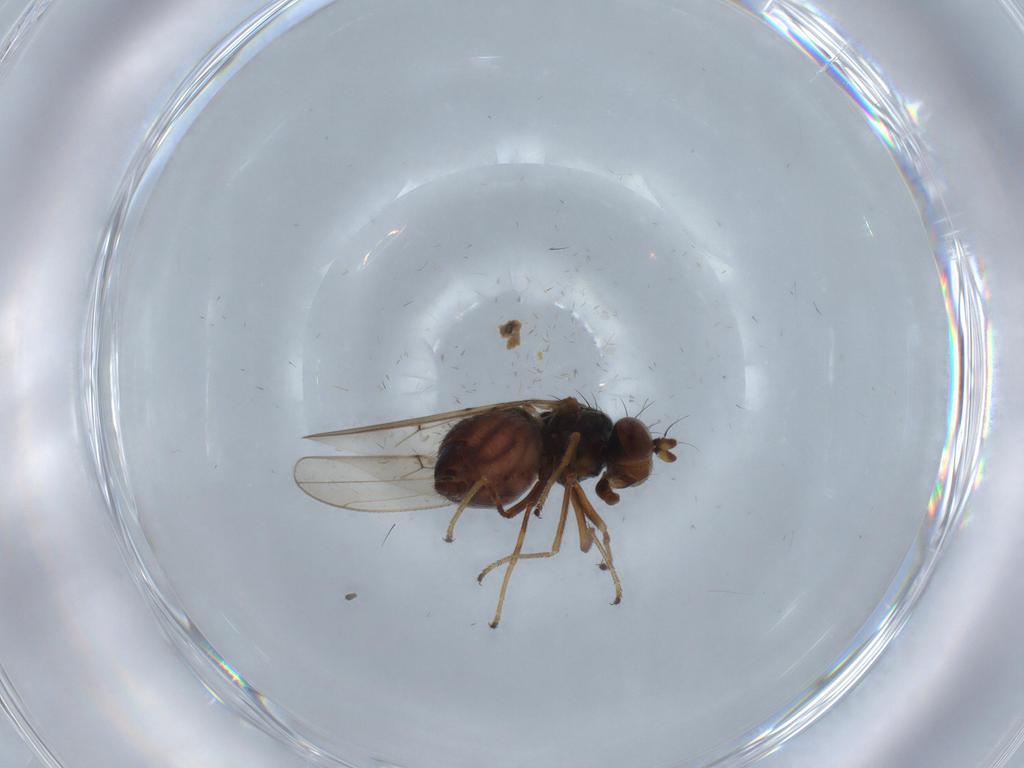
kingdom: Animalia
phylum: Arthropoda
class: Insecta
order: Diptera
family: Ephydridae
